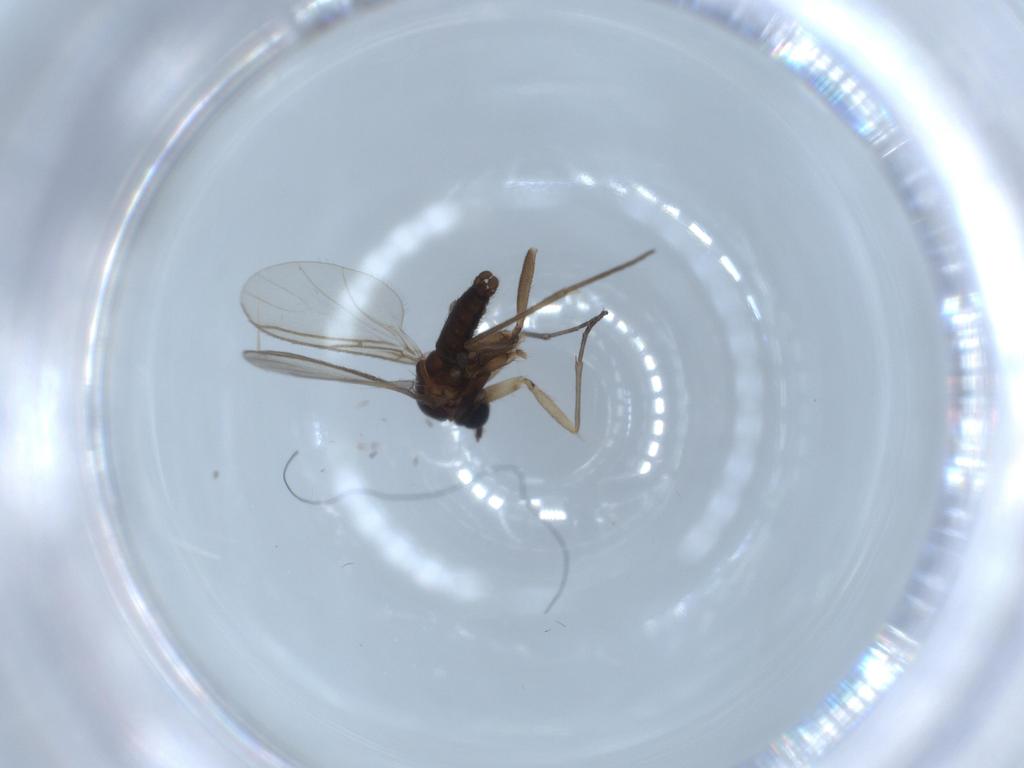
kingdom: Animalia
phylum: Arthropoda
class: Insecta
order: Diptera
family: Sciaridae
